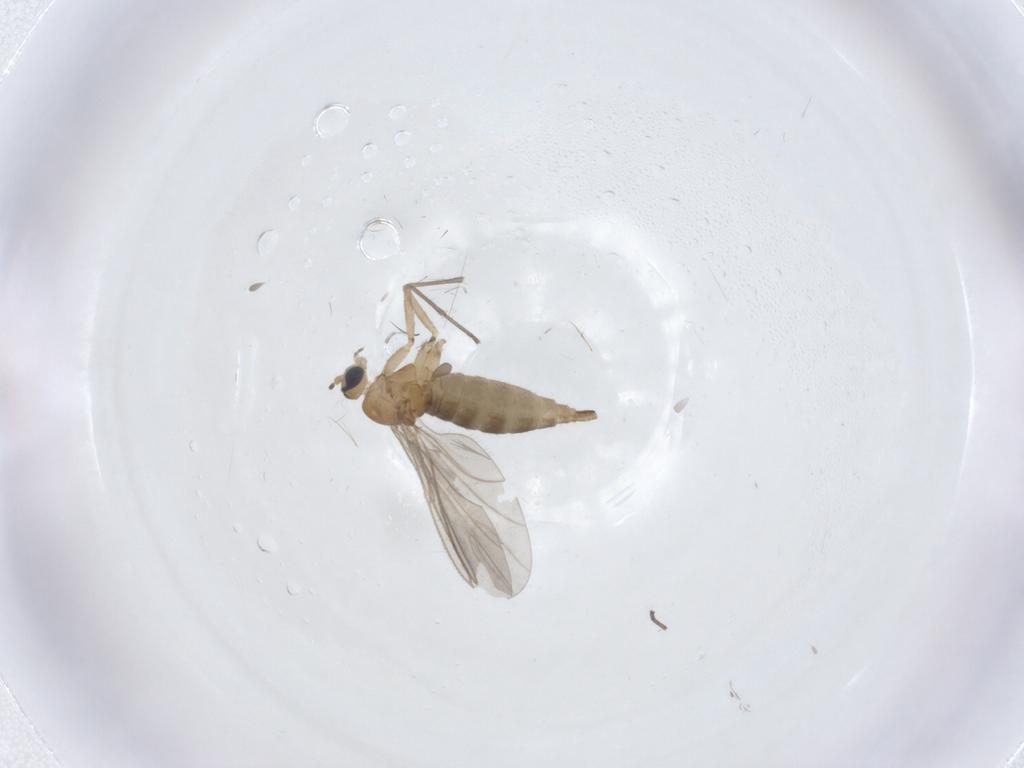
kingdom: Animalia
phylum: Arthropoda
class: Insecta
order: Diptera
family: Sciaridae
